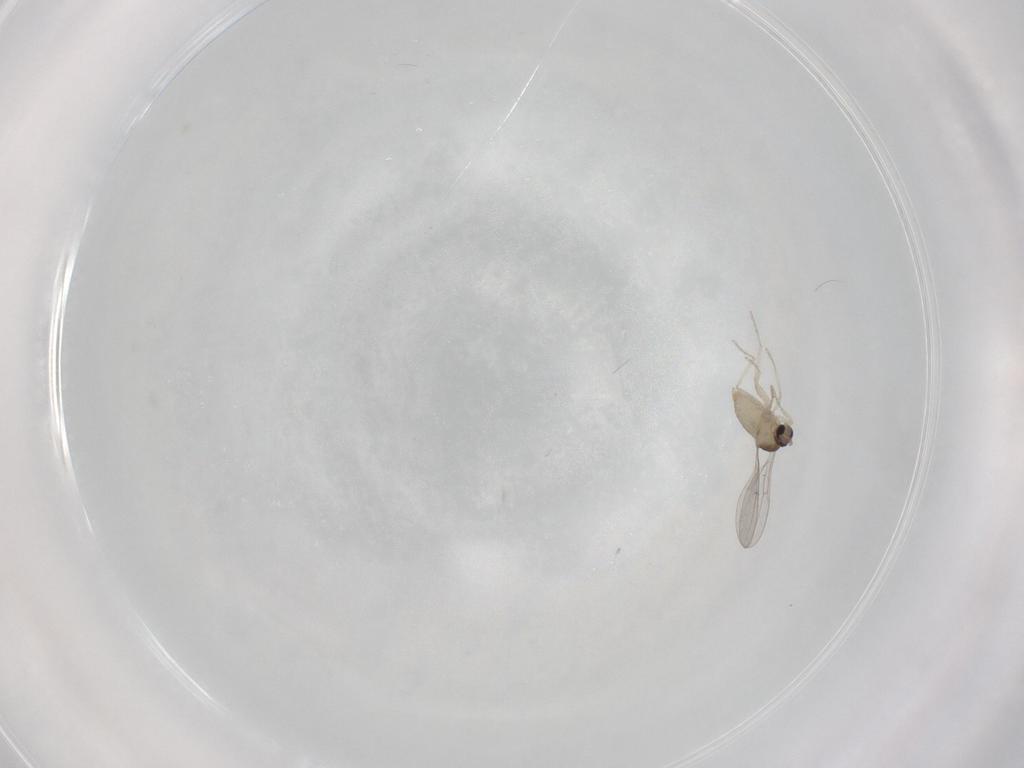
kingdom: Animalia
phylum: Arthropoda
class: Insecta
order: Diptera
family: Cecidomyiidae
